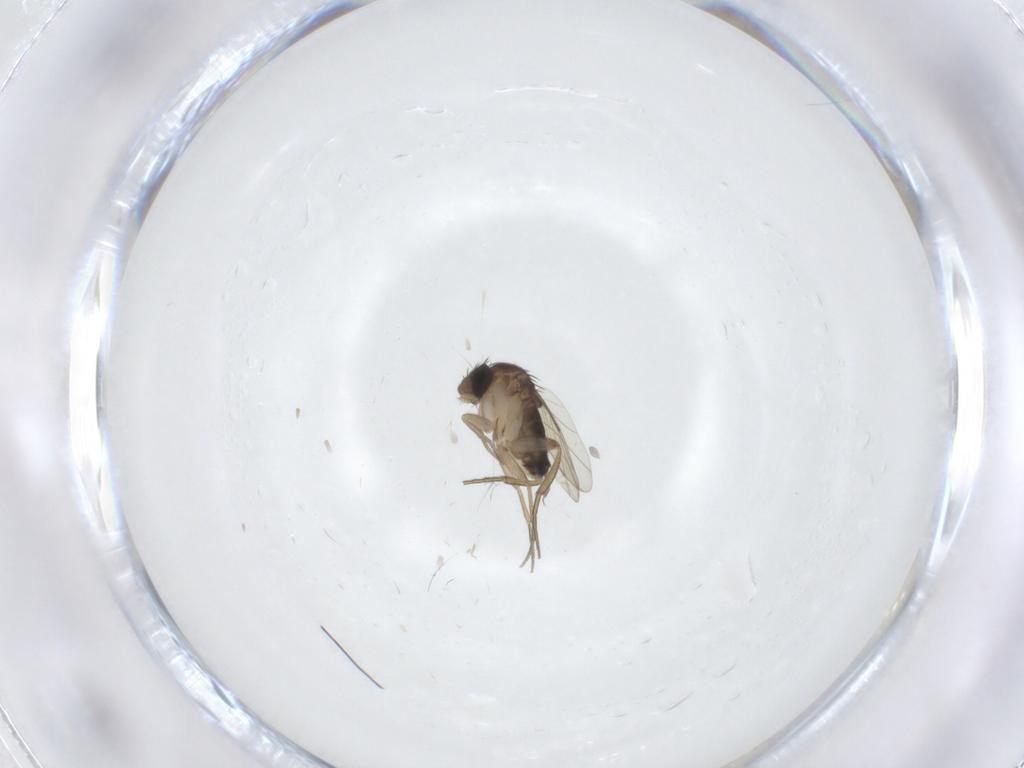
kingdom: Animalia
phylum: Arthropoda
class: Insecta
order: Diptera
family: Phoridae
